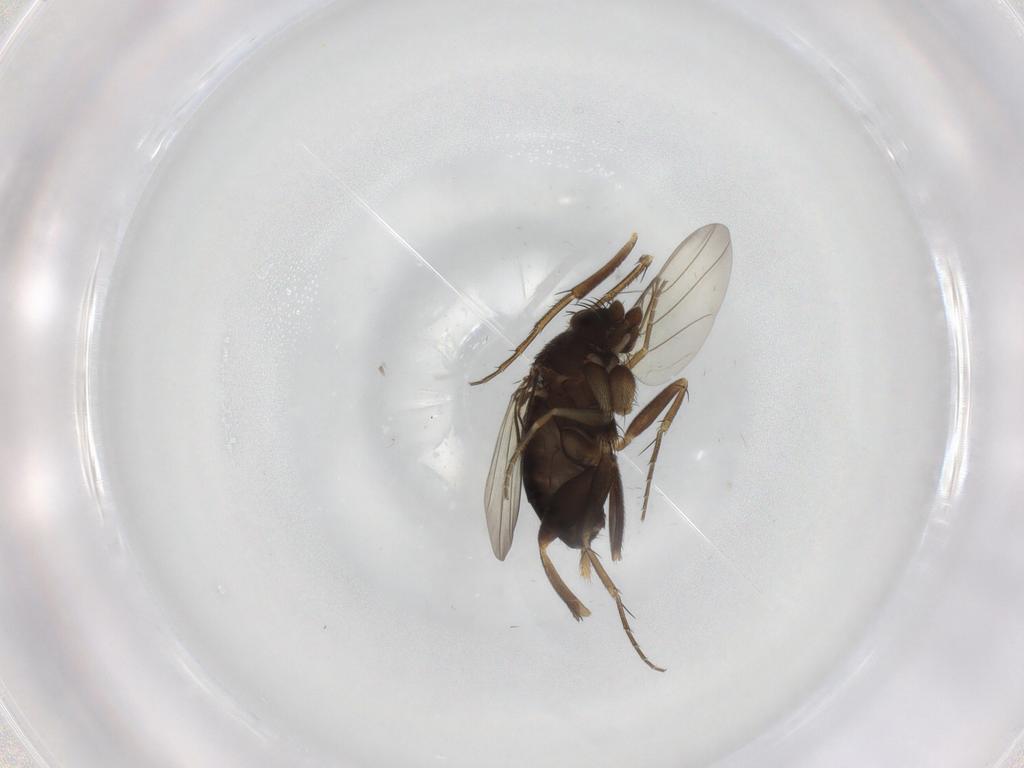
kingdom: Animalia
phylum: Arthropoda
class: Insecta
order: Diptera
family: Phoridae
